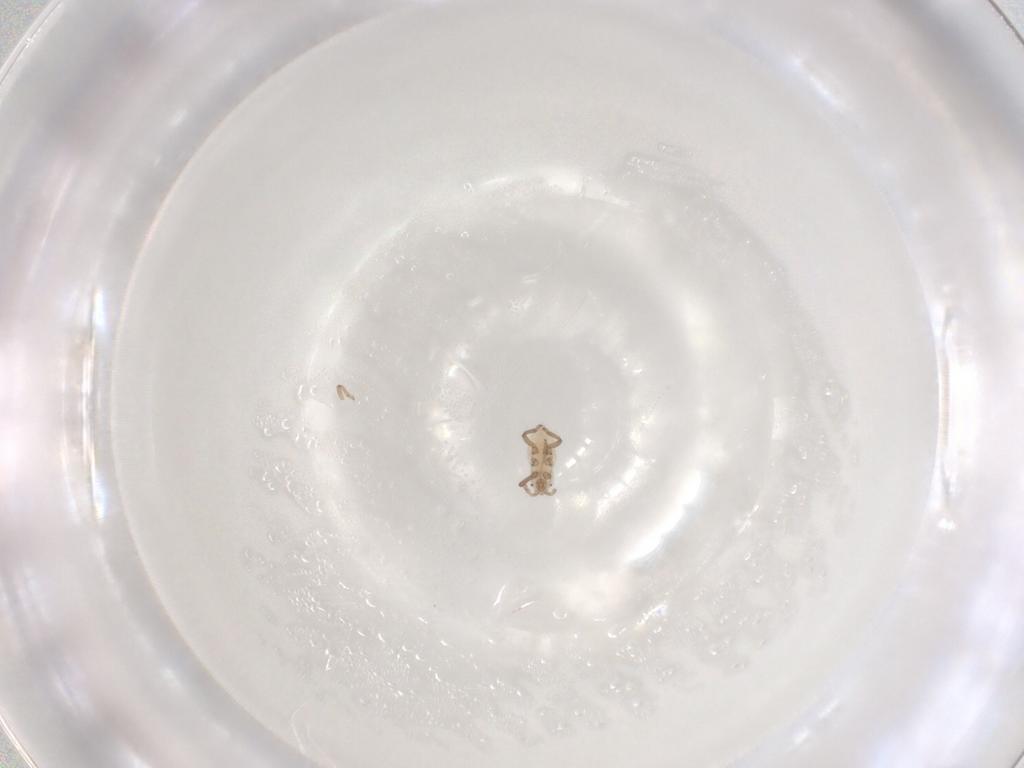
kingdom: Animalia
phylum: Arthropoda
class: Insecta
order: Hemiptera
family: Aphididae
